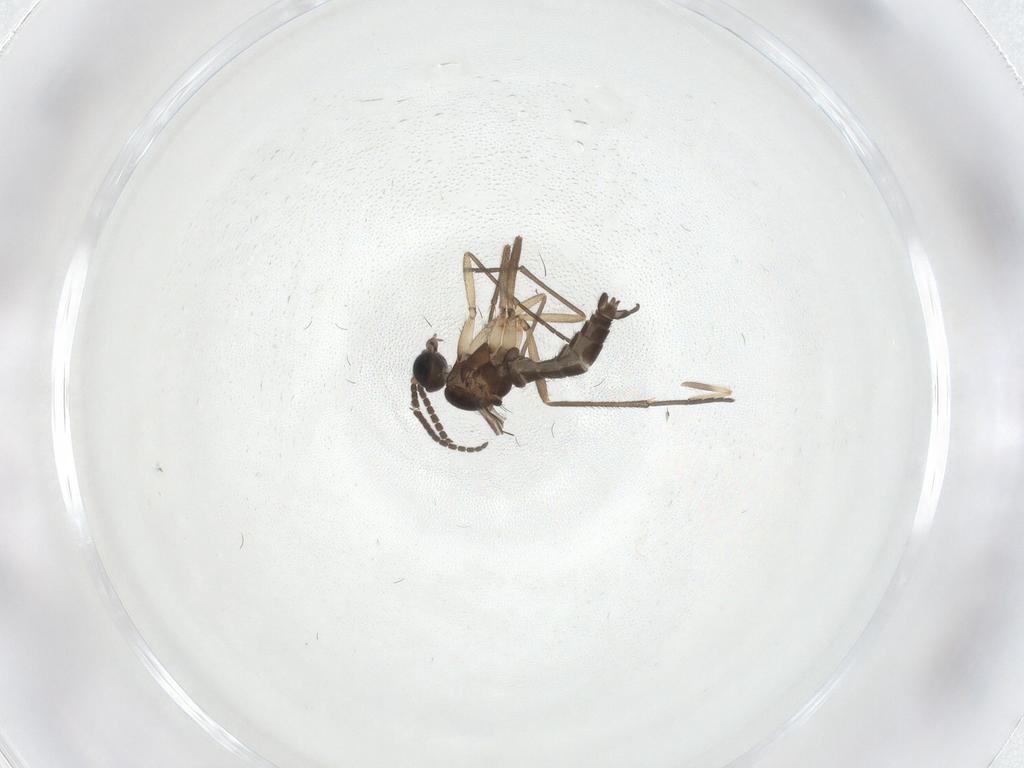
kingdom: Animalia
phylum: Arthropoda
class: Insecta
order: Diptera
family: Sciaridae
